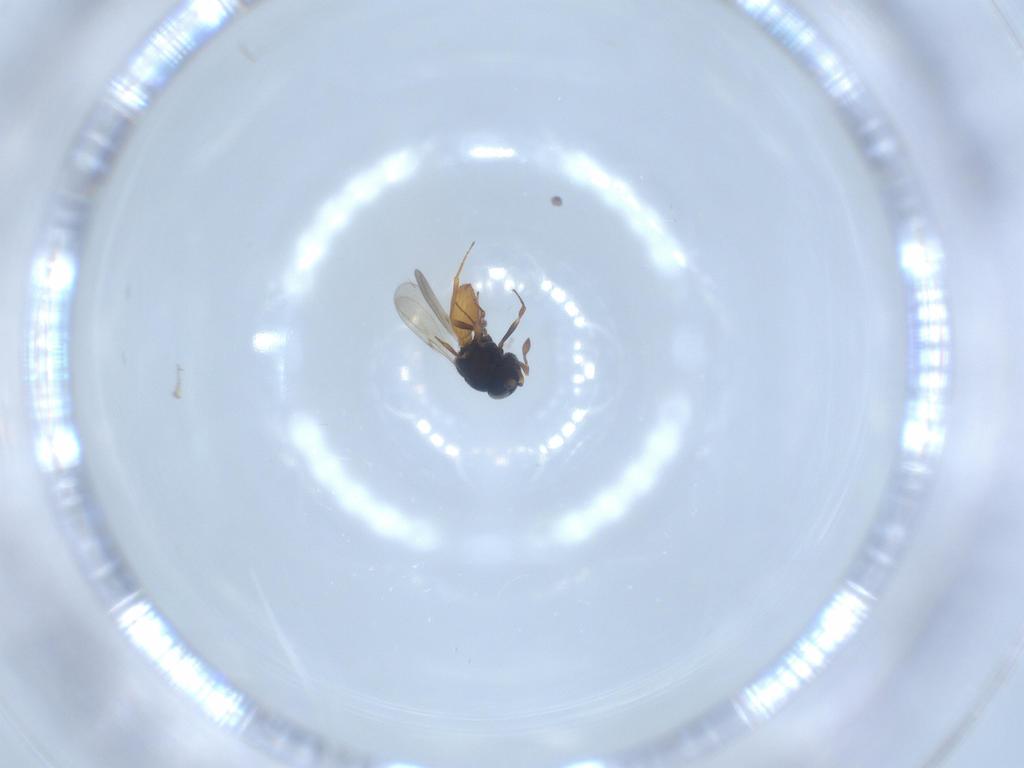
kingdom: Animalia
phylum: Arthropoda
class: Insecta
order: Hymenoptera
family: Scelionidae
